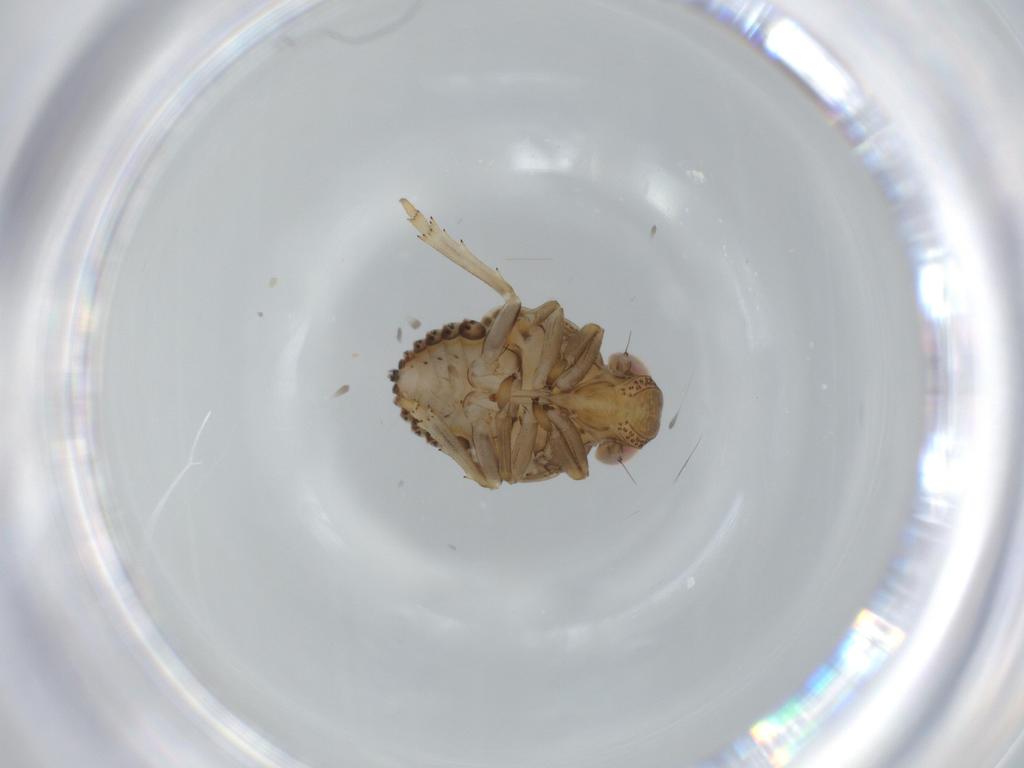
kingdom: Animalia
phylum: Arthropoda
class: Insecta
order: Hemiptera
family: Issidae
